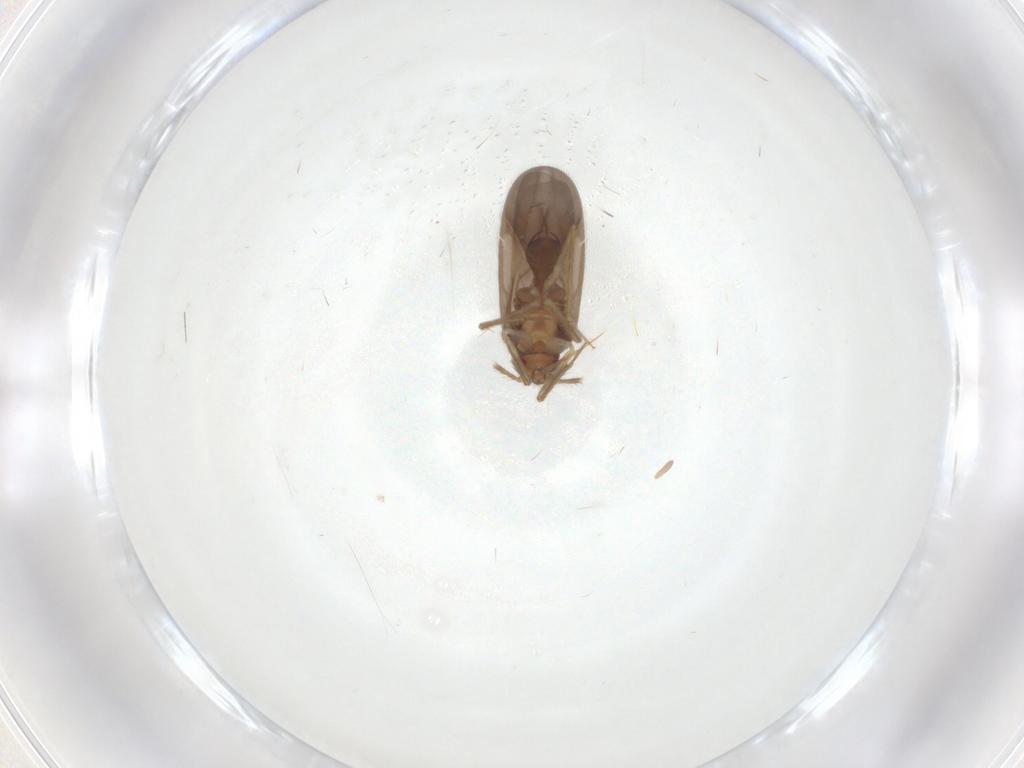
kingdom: Animalia
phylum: Arthropoda
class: Insecta
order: Hemiptera
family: Ceratocombidae
